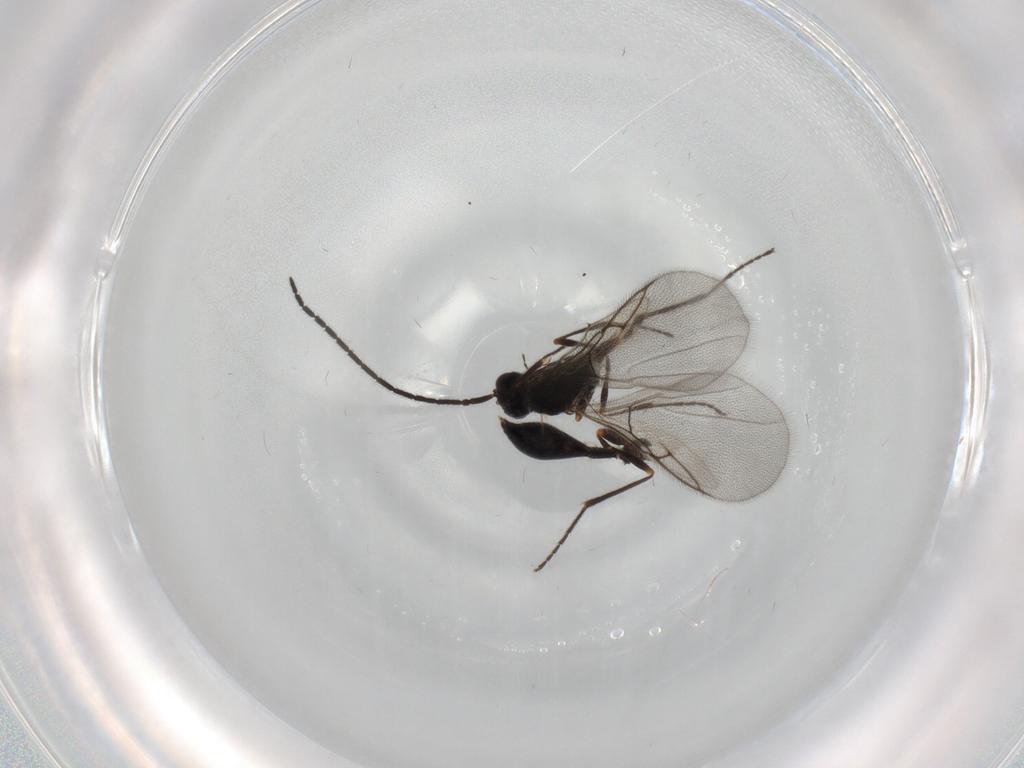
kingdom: Animalia
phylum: Arthropoda
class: Insecta
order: Hymenoptera
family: Diapriidae
